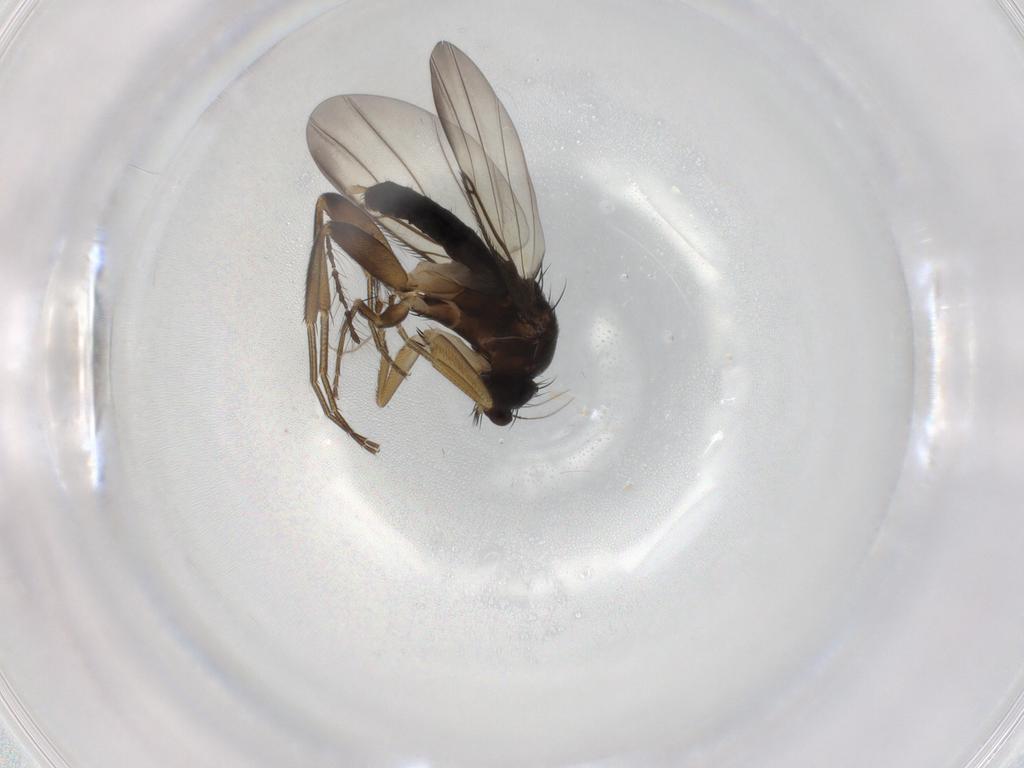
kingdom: Animalia
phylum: Arthropoda
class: Insecta
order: Diptera
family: Phoridae
